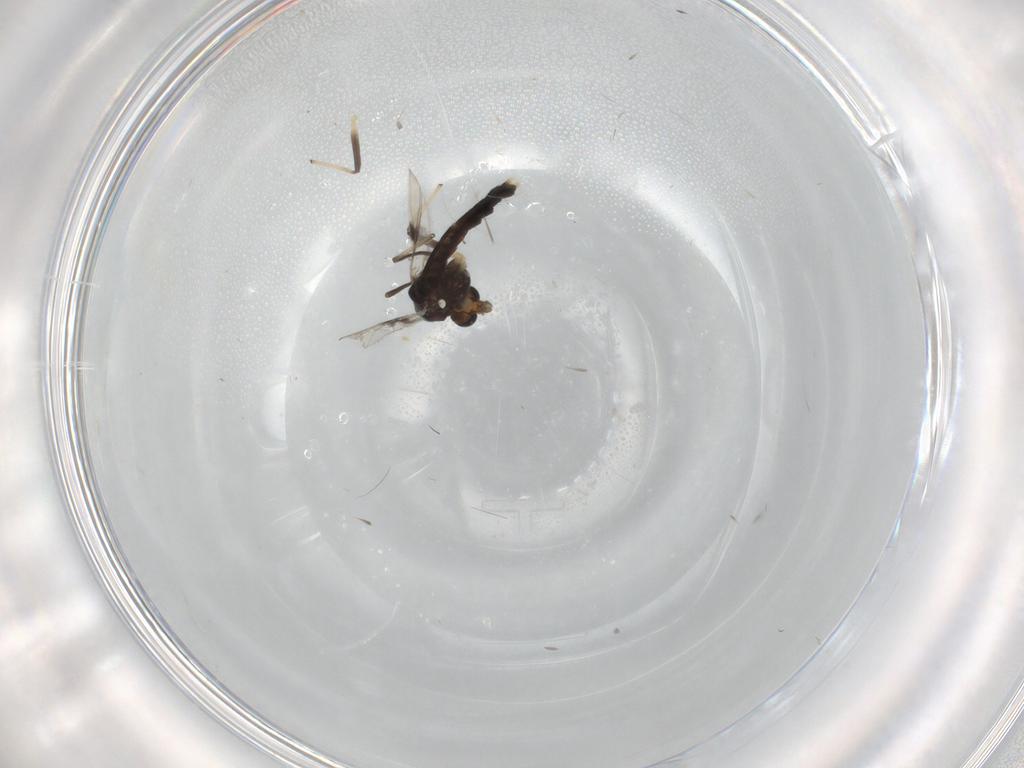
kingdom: Animalia
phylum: Arthropoda
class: Insecta
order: Diptera
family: Chironomidae
